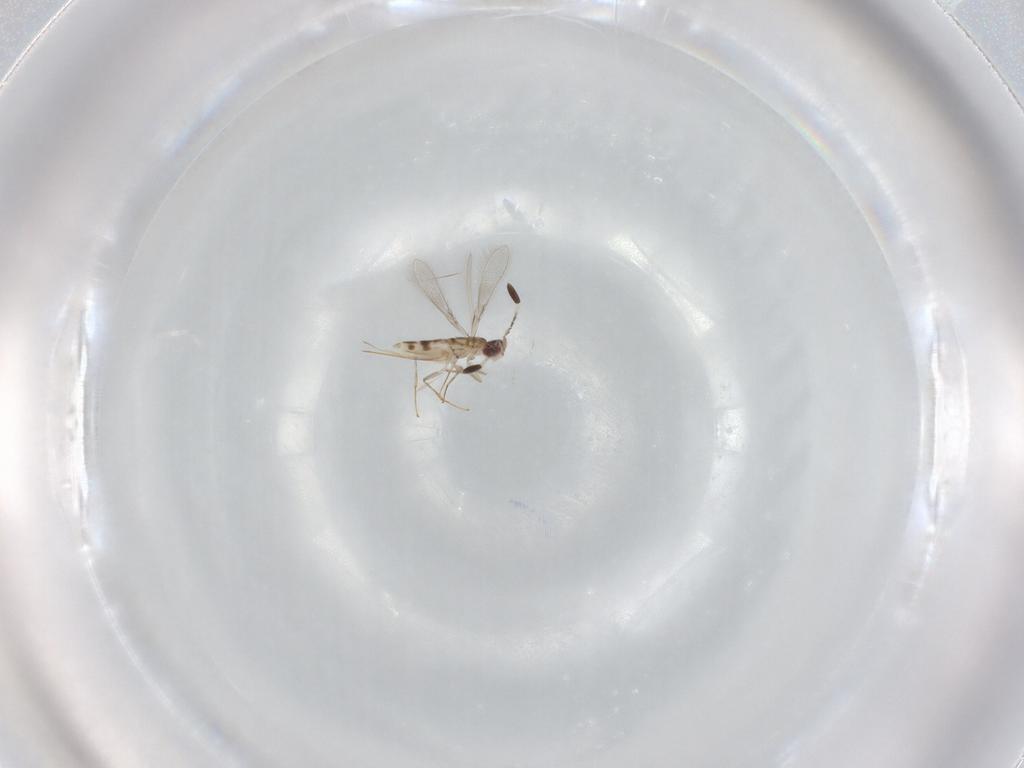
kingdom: Animalia
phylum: Arthropoda
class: Insecta
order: Hymenoptera
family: Mymaridae
